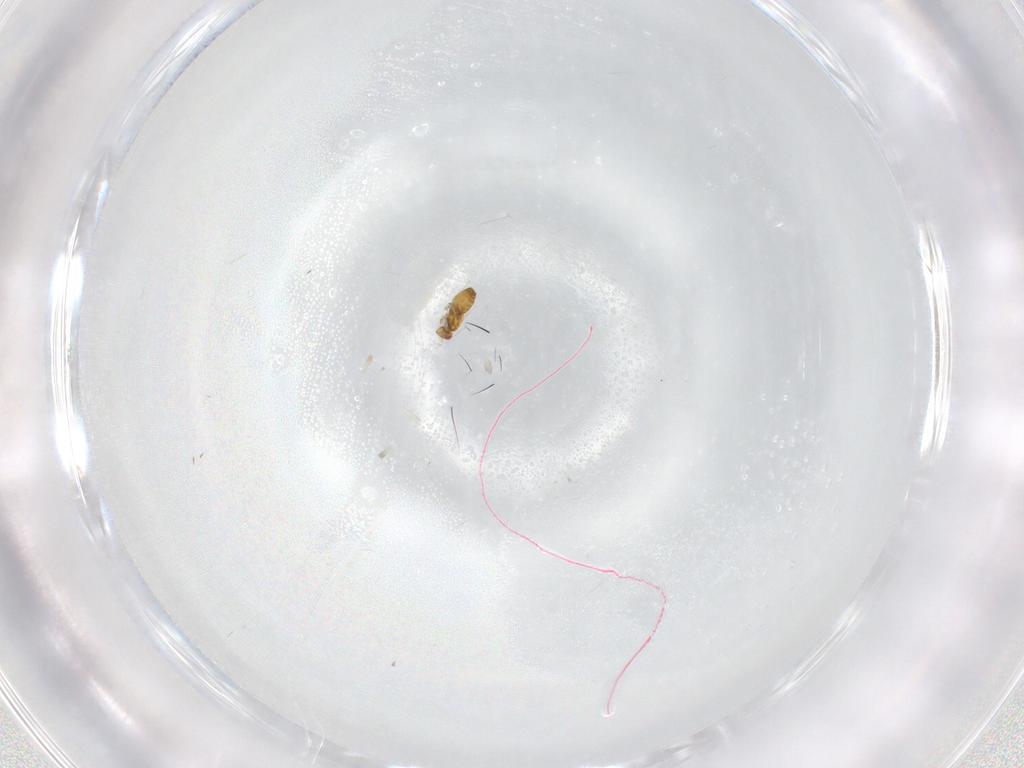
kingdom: Animalia
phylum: Arthropoda
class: Insecta
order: Hymenoptera
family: Trichogrammatidae
